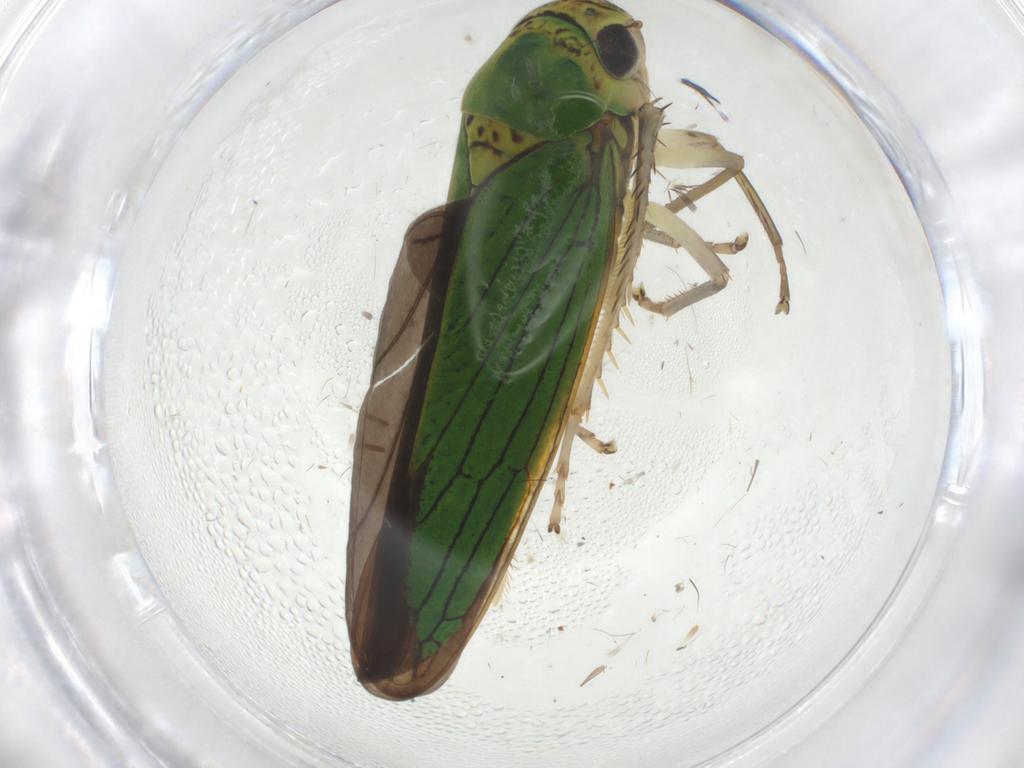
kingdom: Animalia
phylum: Arthropoda
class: Insecta
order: Hemiptera
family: Cicadellidae
